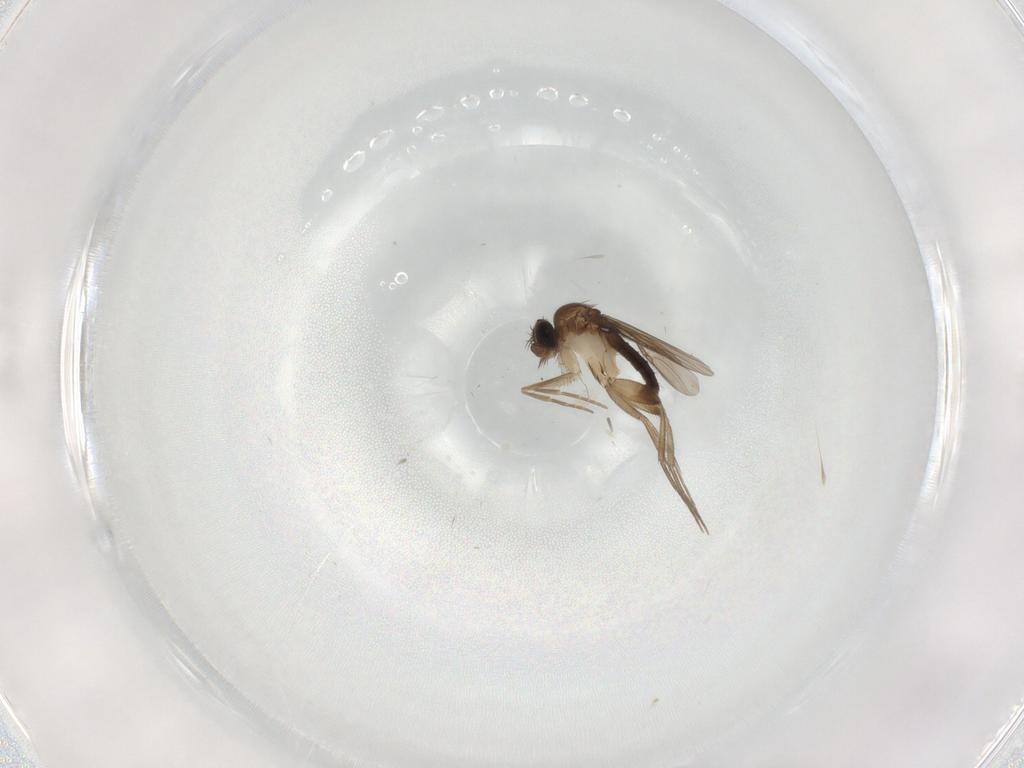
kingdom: Animalia
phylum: Arthropoda
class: Insecta
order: Diptera
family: Phoridae
